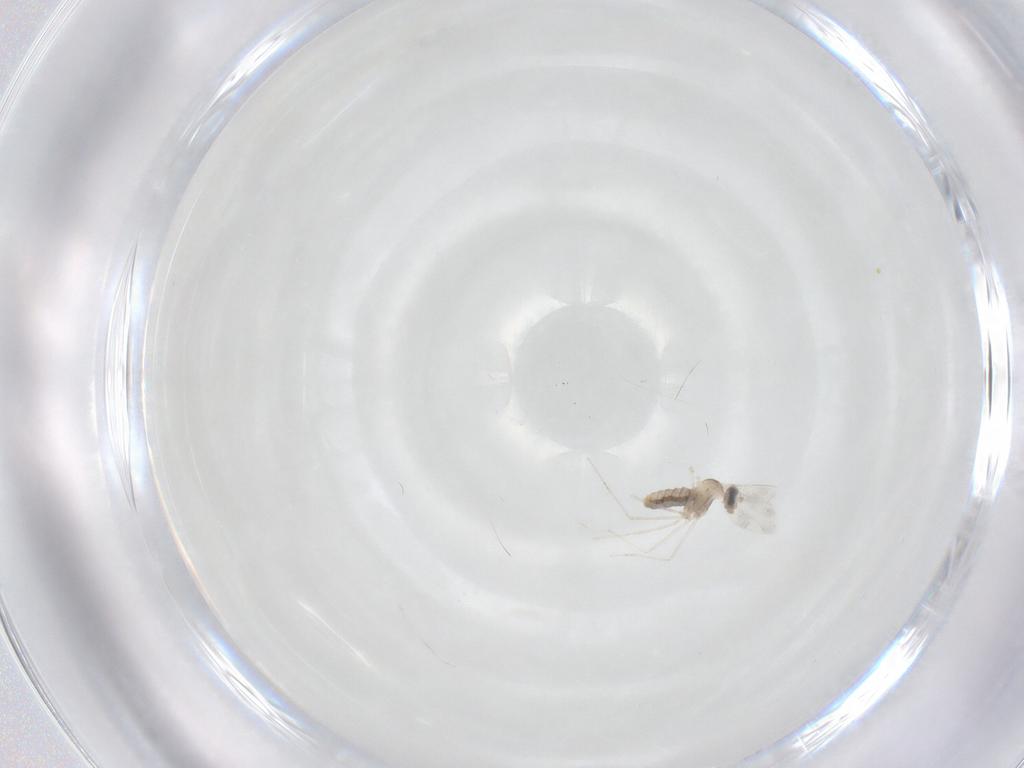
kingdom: Animalia
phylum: Arthropoda
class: Insecta
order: Diptera
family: Cecidomyiidae
